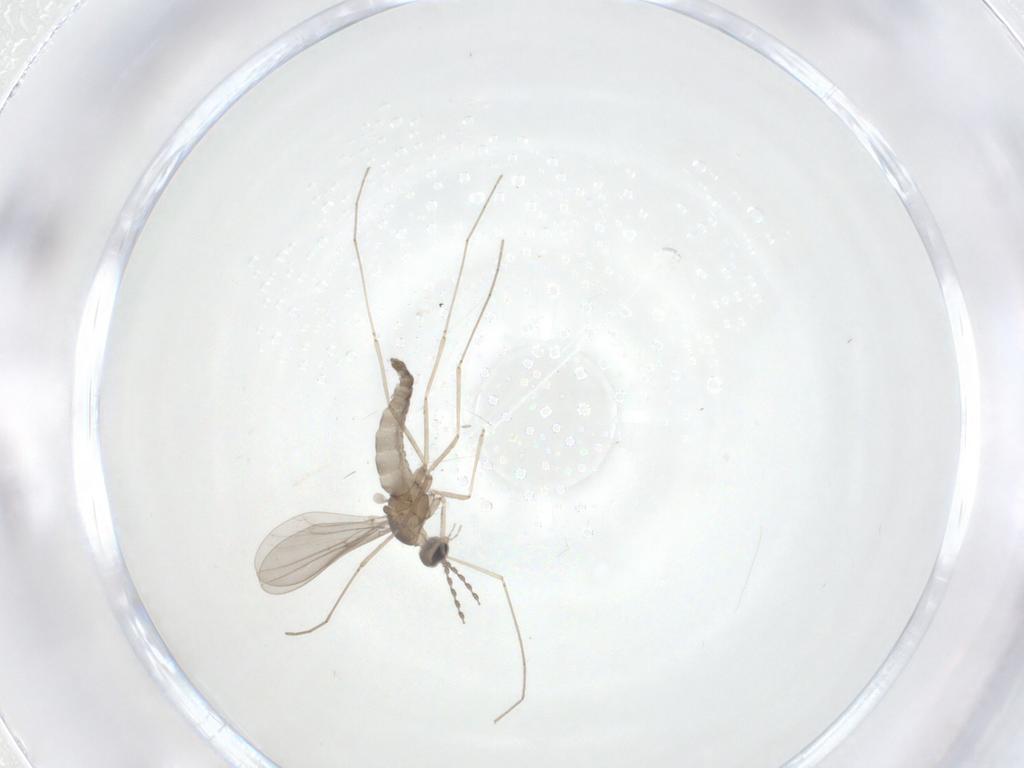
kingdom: Animalia
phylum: Arthropoda
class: Insecta
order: Diptera
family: Cecidomyiidae
